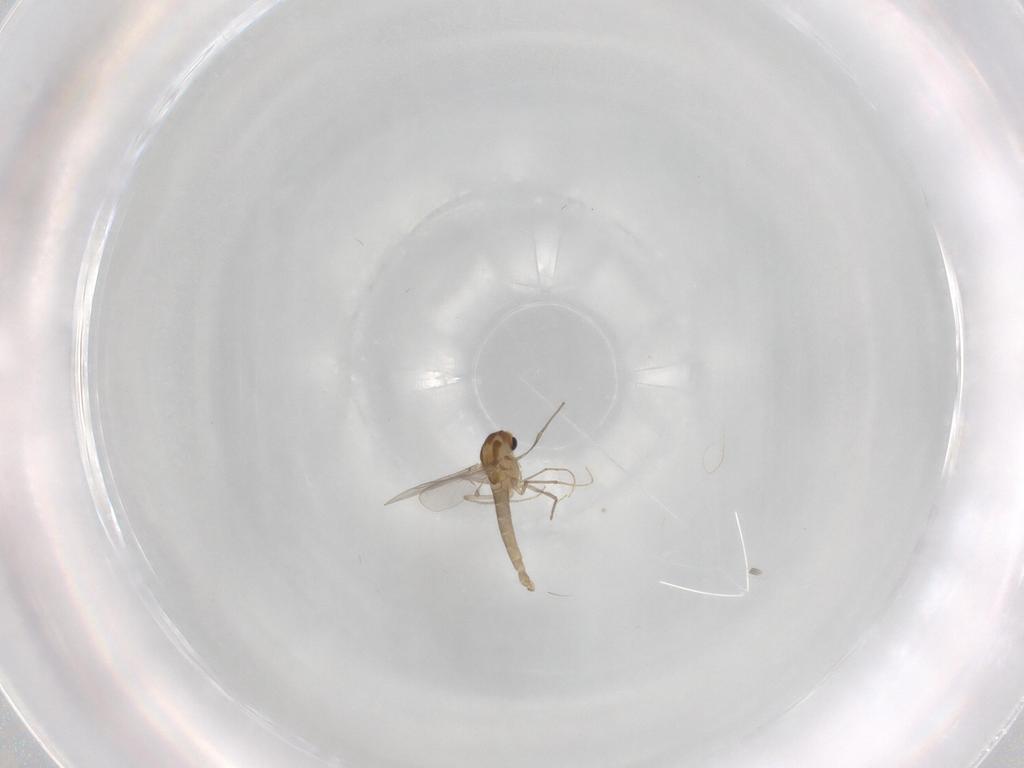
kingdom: Animalia
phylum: Arthropoda
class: Insecta
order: Diptera
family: Chironomidae
